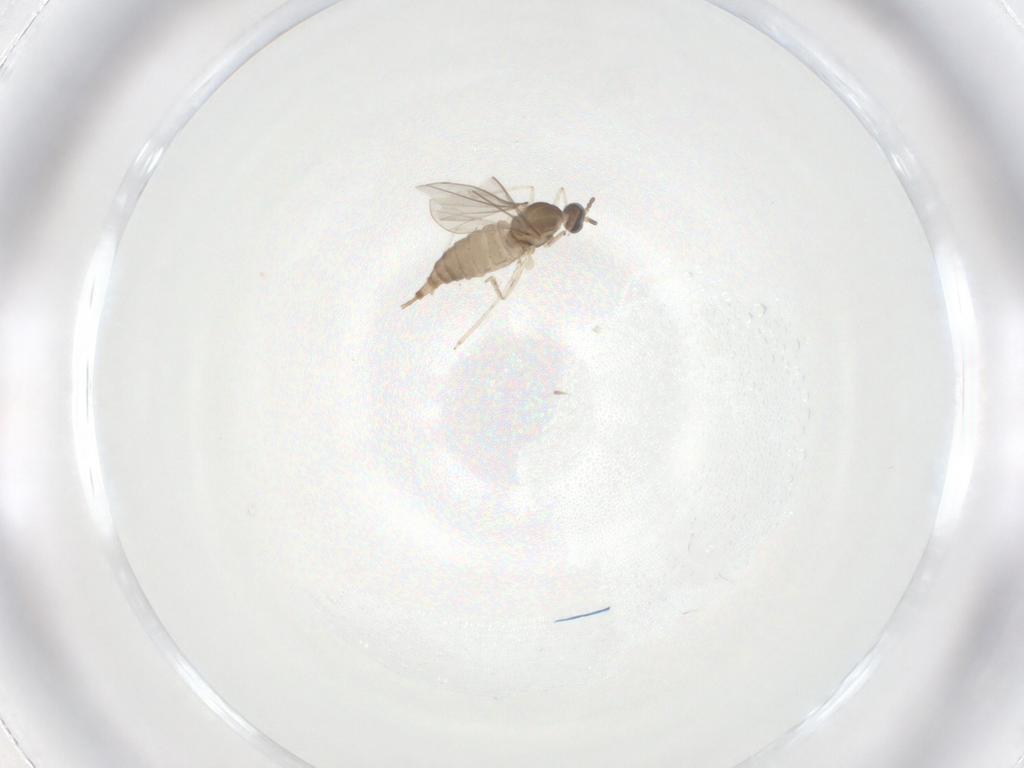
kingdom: Animalia
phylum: Arthropoda
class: Insecta
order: Diptera
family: Cecidomyiidae
